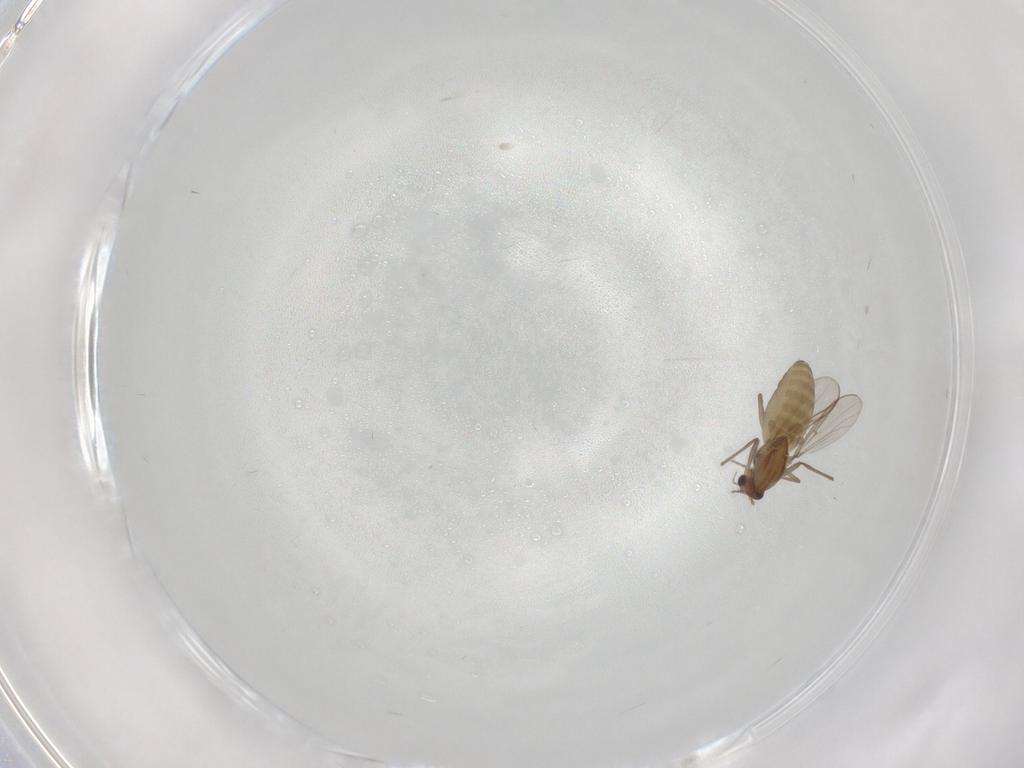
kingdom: Animalia
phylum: Arthropoda
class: Insecta
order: Diptera
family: Chironomidae
